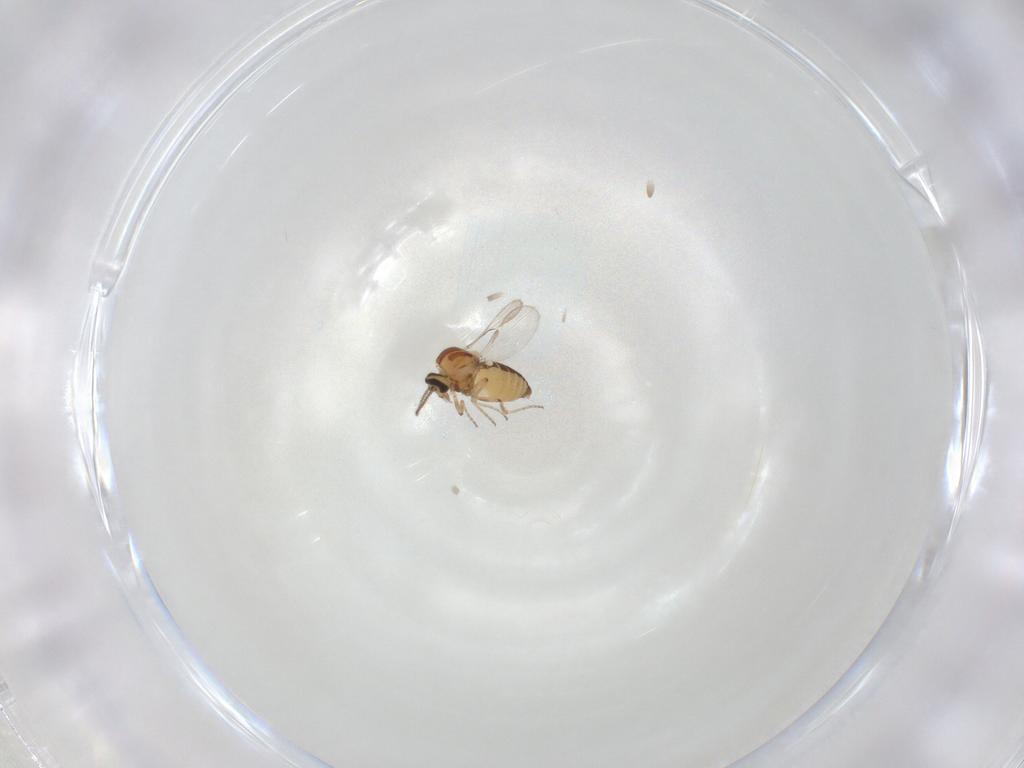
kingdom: Animalia
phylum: Arthropoda
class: Insecta
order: Diptera
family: Cecidomyiidae
